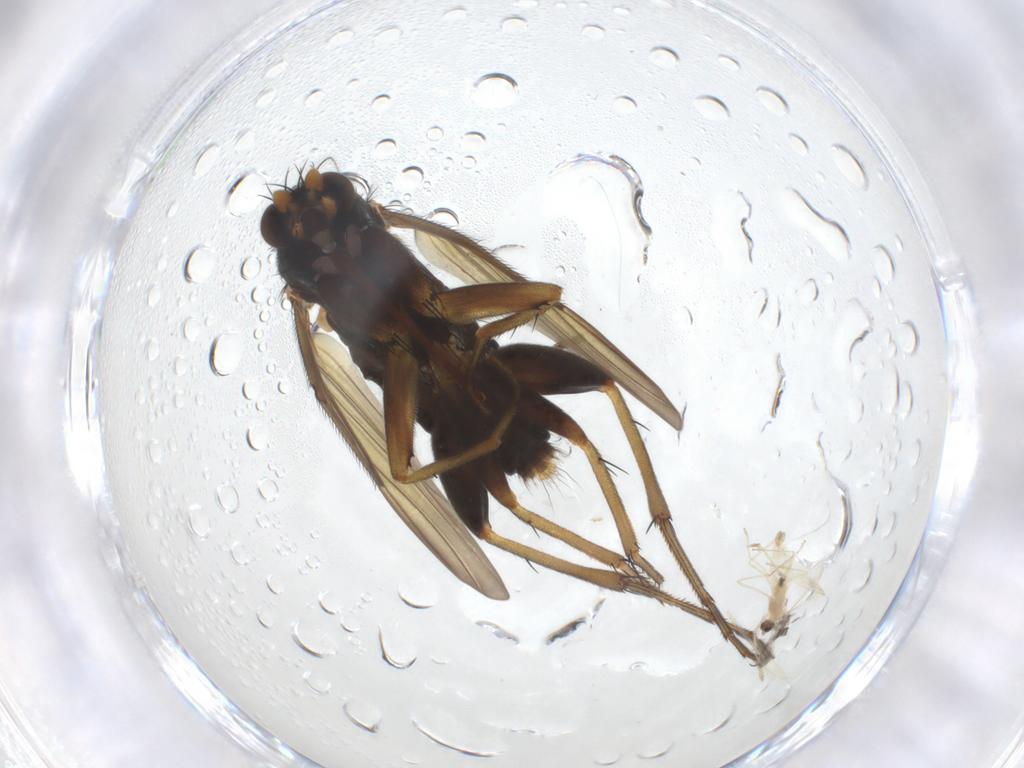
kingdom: Animalia
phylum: Arthropoda
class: Insecta
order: Diptera
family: Phoridae
